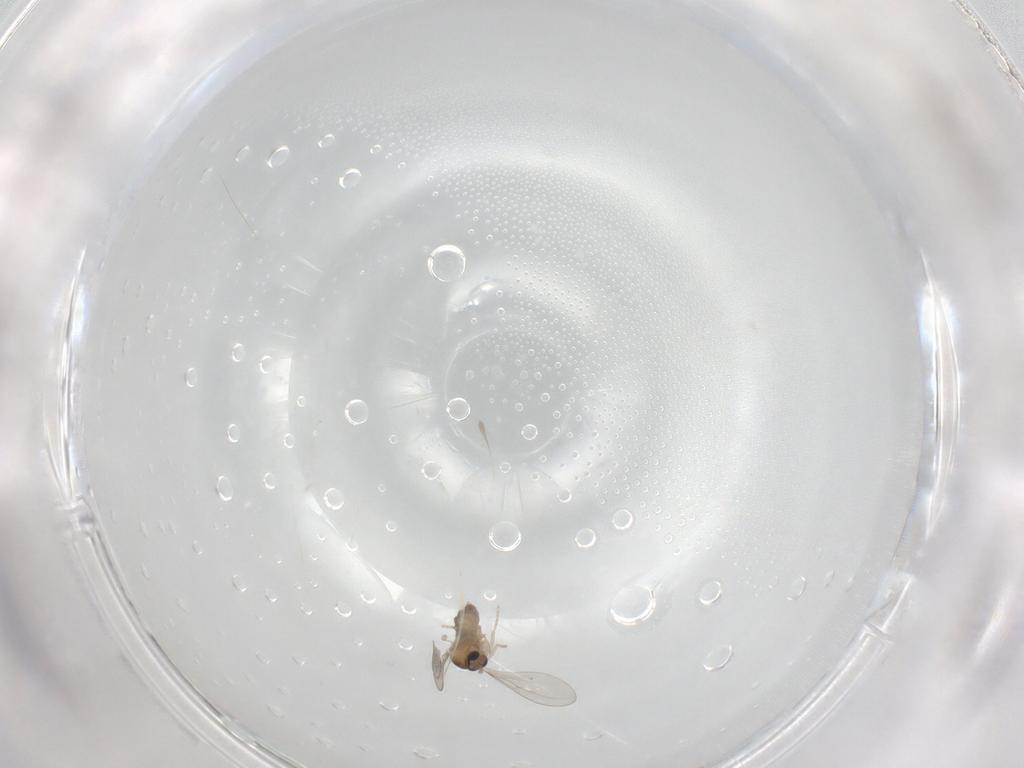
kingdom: Animalia
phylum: Arthropoda
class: Insecta
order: Diptera
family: Cecidomyiidae
